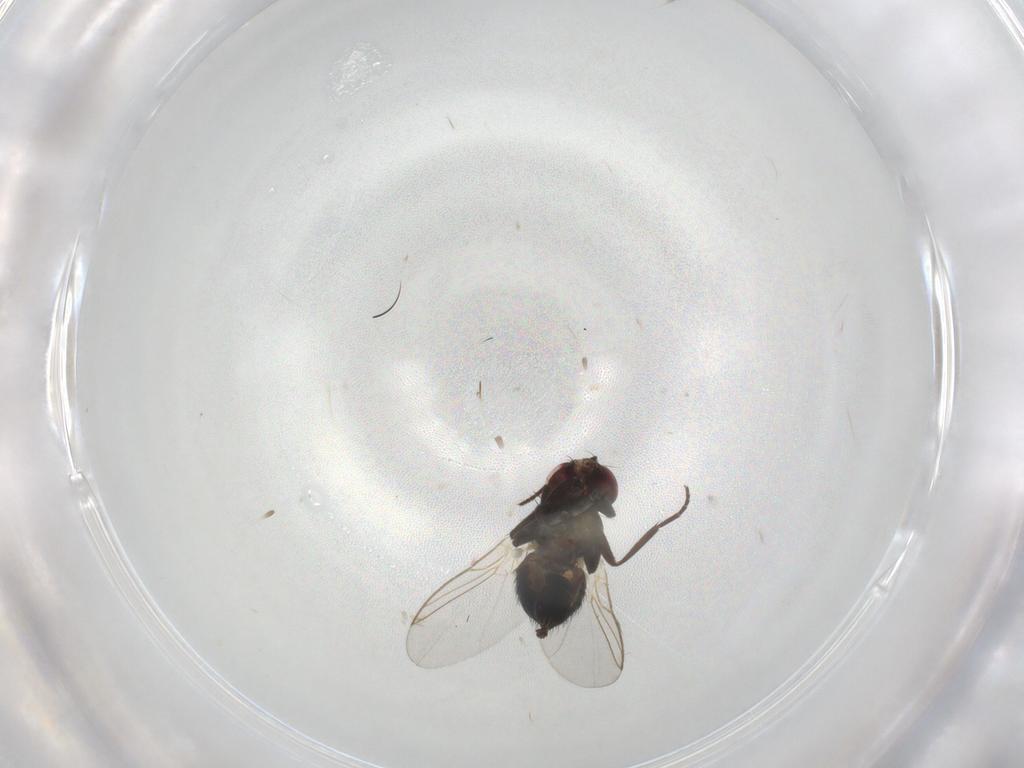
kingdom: Animalia
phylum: Arthropoda
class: Insecta
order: Diptera
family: Agromyzidae
